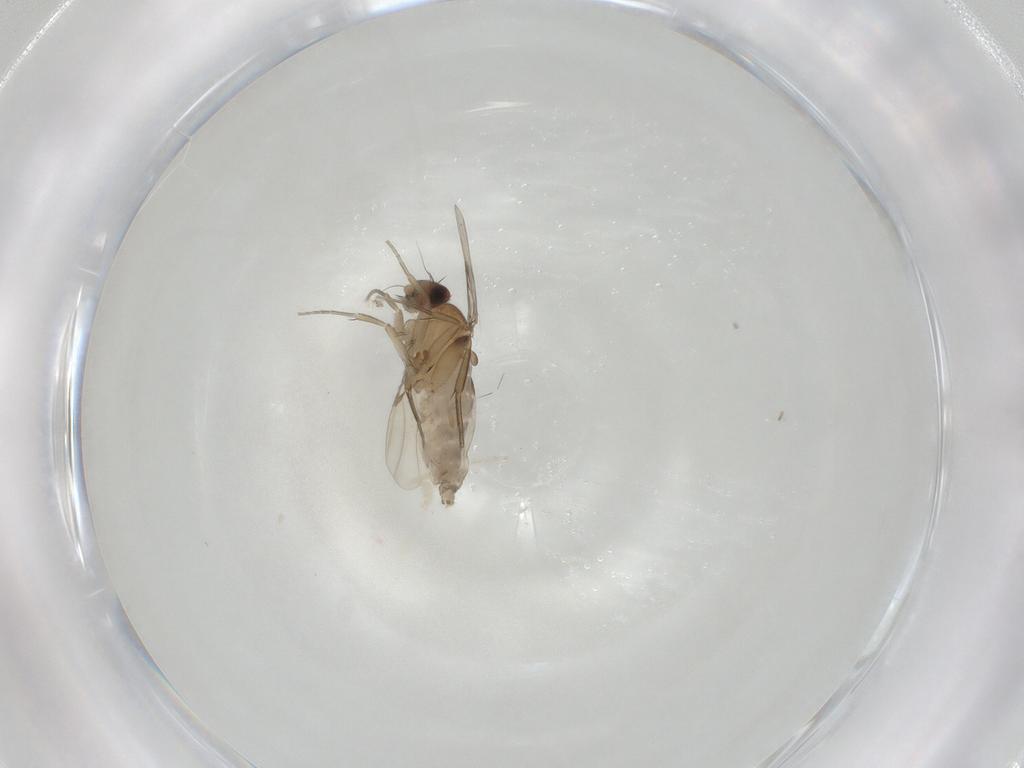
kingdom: Animalia
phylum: Arthropoda
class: Insecta
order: Diptera
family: Phoridae
